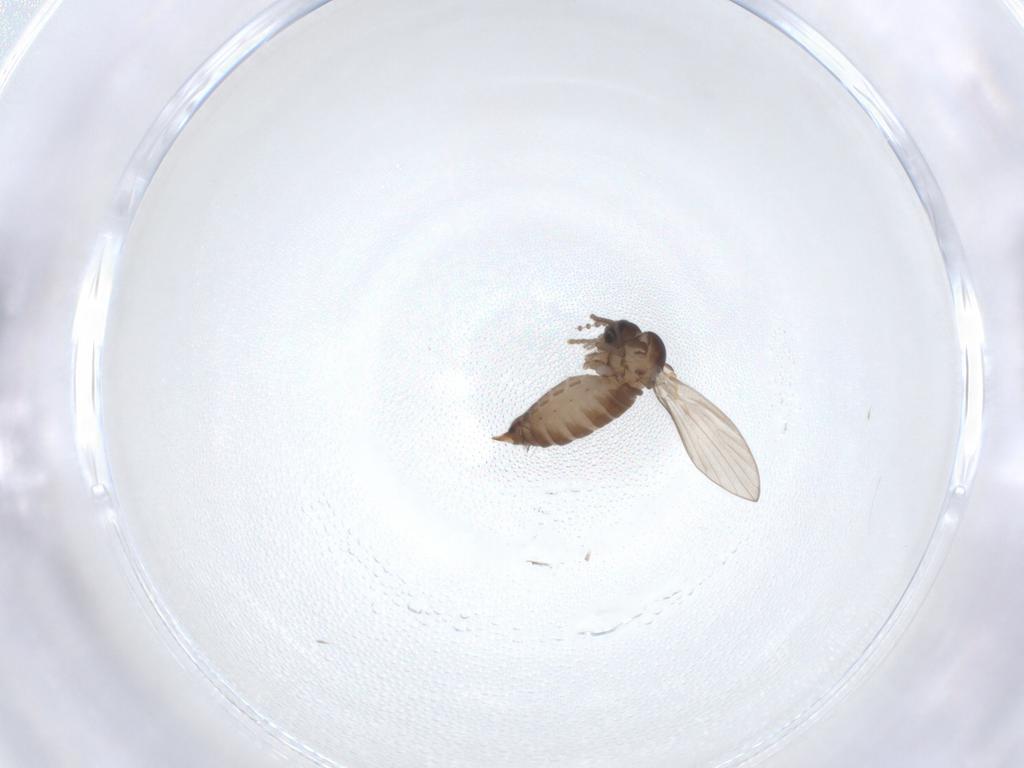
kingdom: Animalia
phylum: Arthropoda
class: Insecta
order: Diptera
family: Psychodidae
